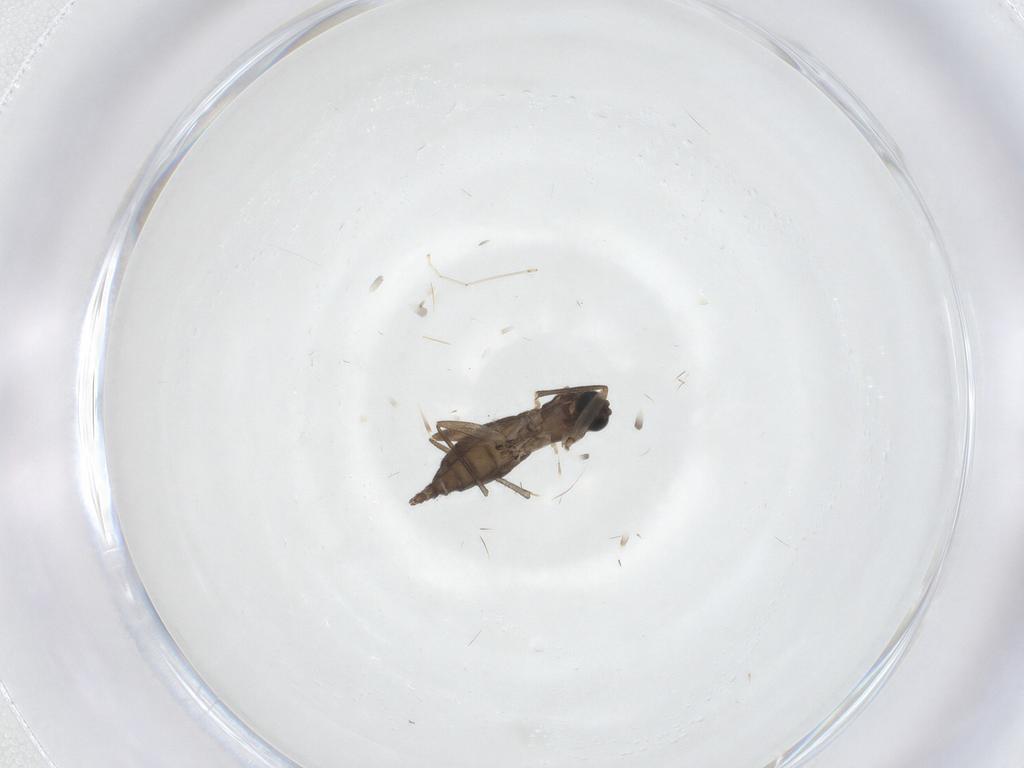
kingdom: Animalia
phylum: Arthropoda
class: Insecta
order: Diptera
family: Sciaridae
